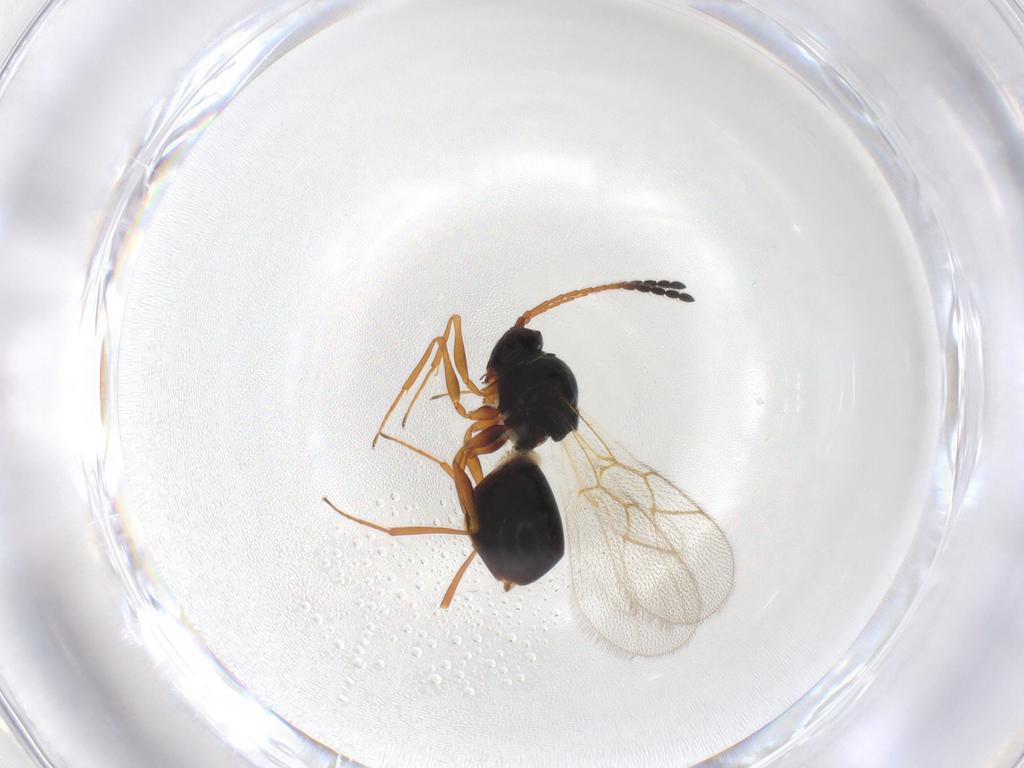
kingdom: Animalia
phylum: Arthropoda
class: Insecta
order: Hymenoptera
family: Figitidae
